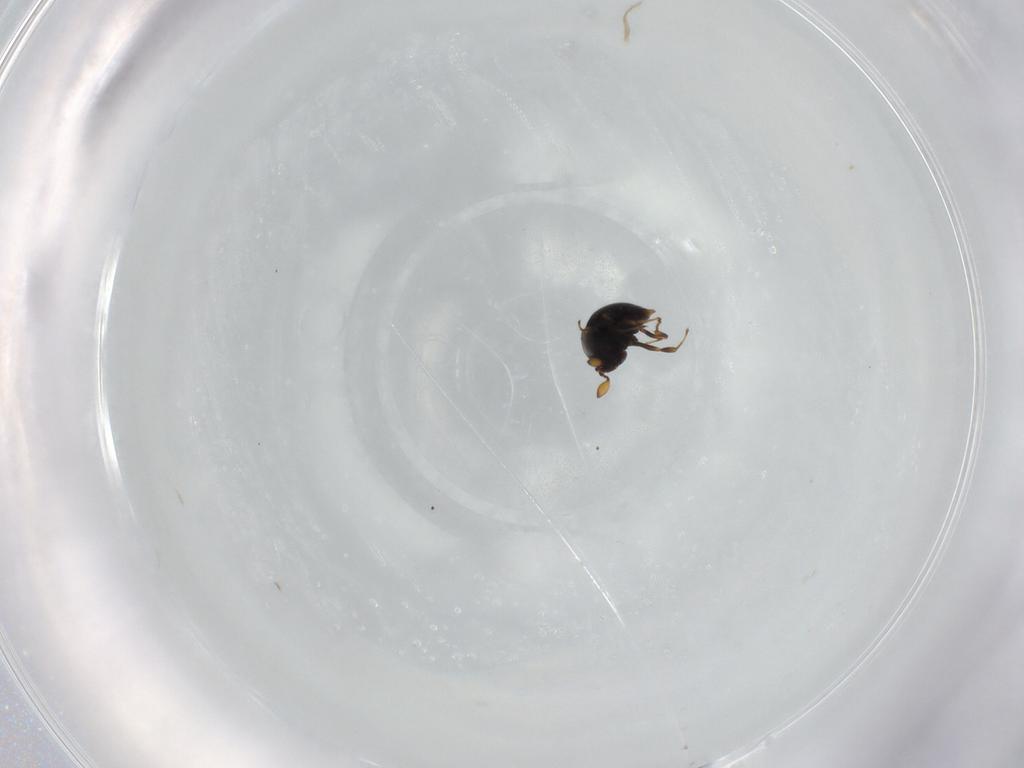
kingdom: Animalia
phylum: Arthropoda
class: Insecta
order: Hymenoptera
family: Scelionidae
